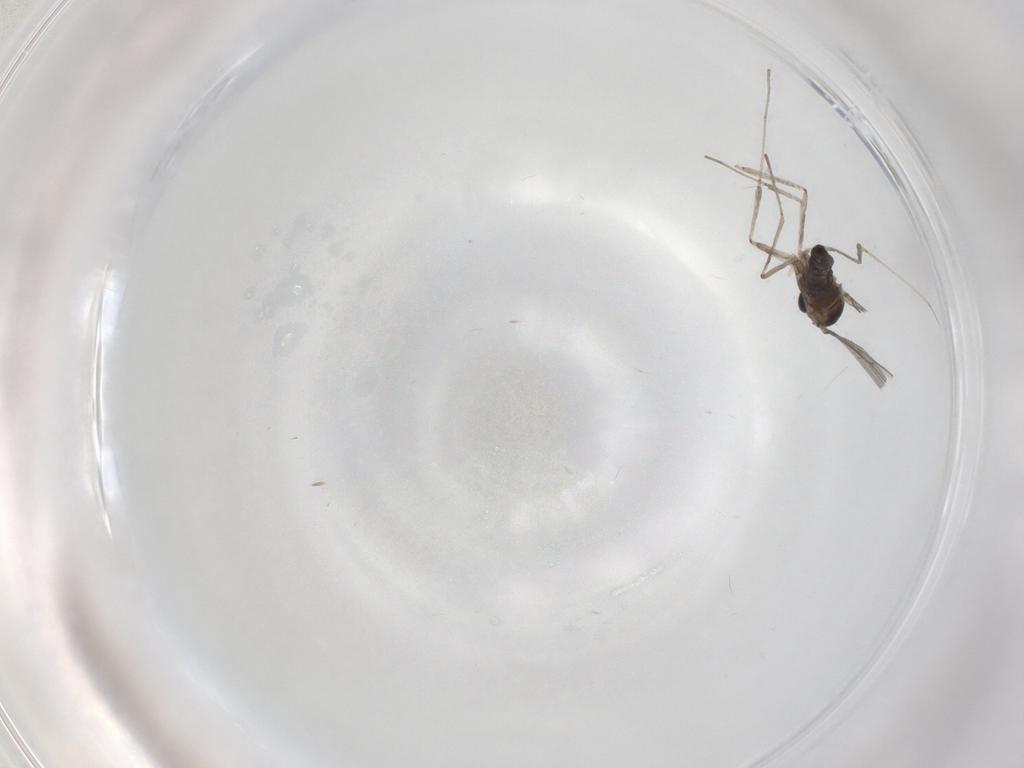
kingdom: Animalia
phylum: Arthropoda
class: Insecta
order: Diptera
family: Cecidomyiidae
